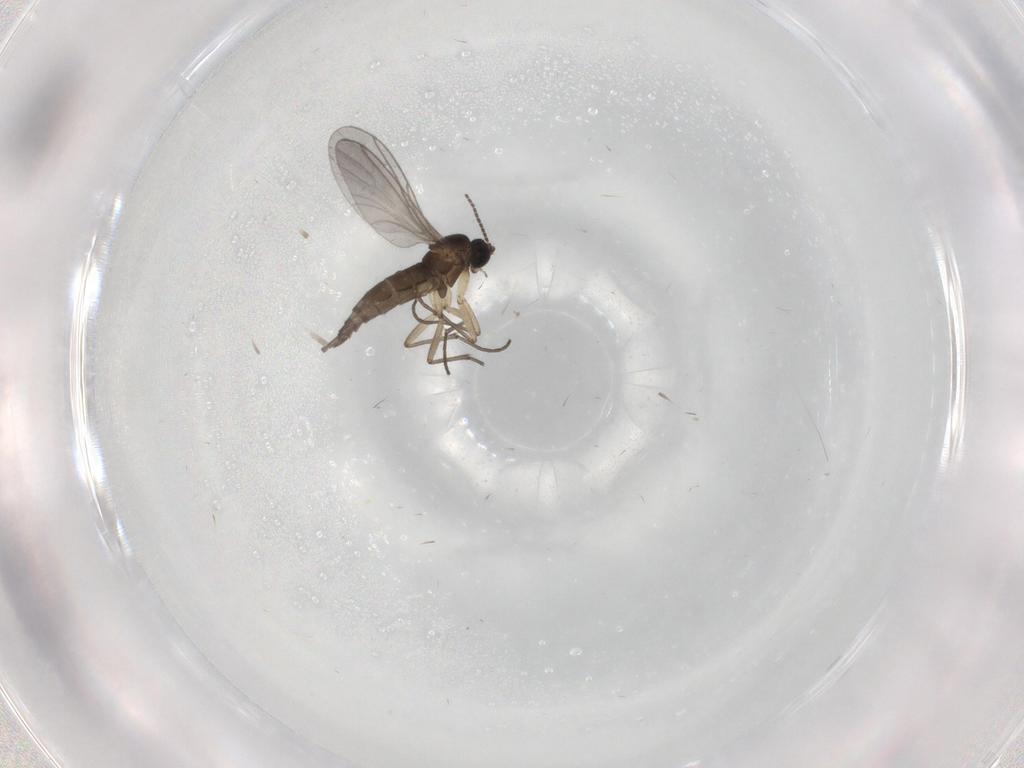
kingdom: Animalia
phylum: Arthropoda
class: Insecta
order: Diptera
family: Sciaridae
